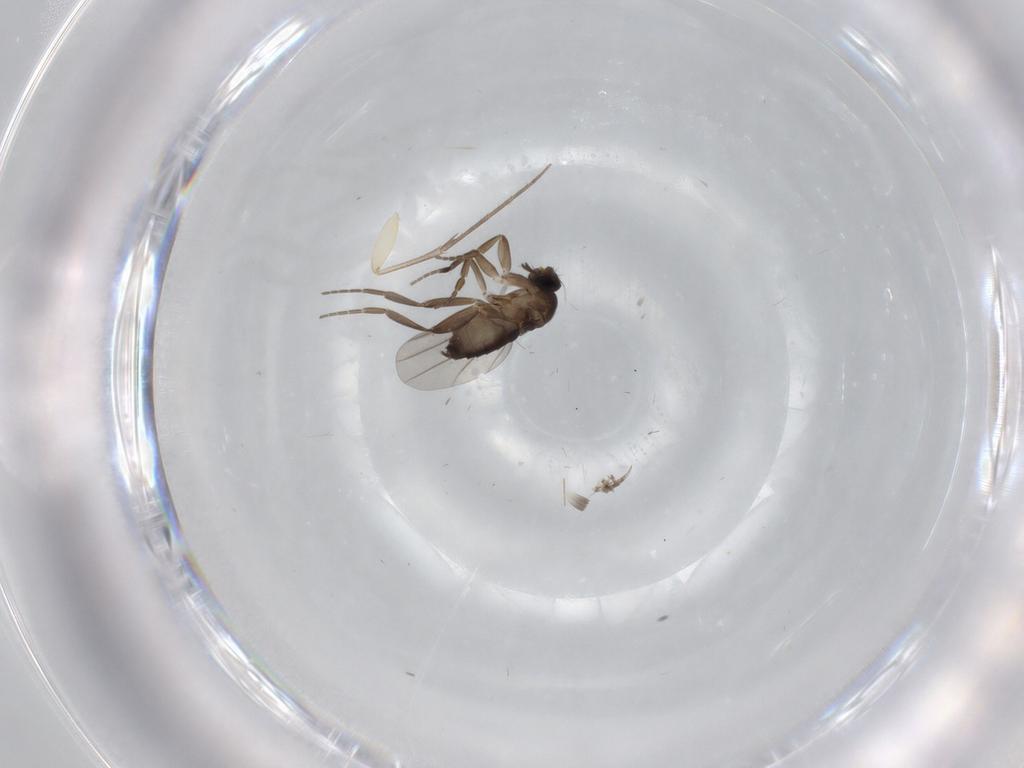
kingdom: Animalia
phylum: Arthropoda
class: Insecta
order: Diptera
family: Phoridae
